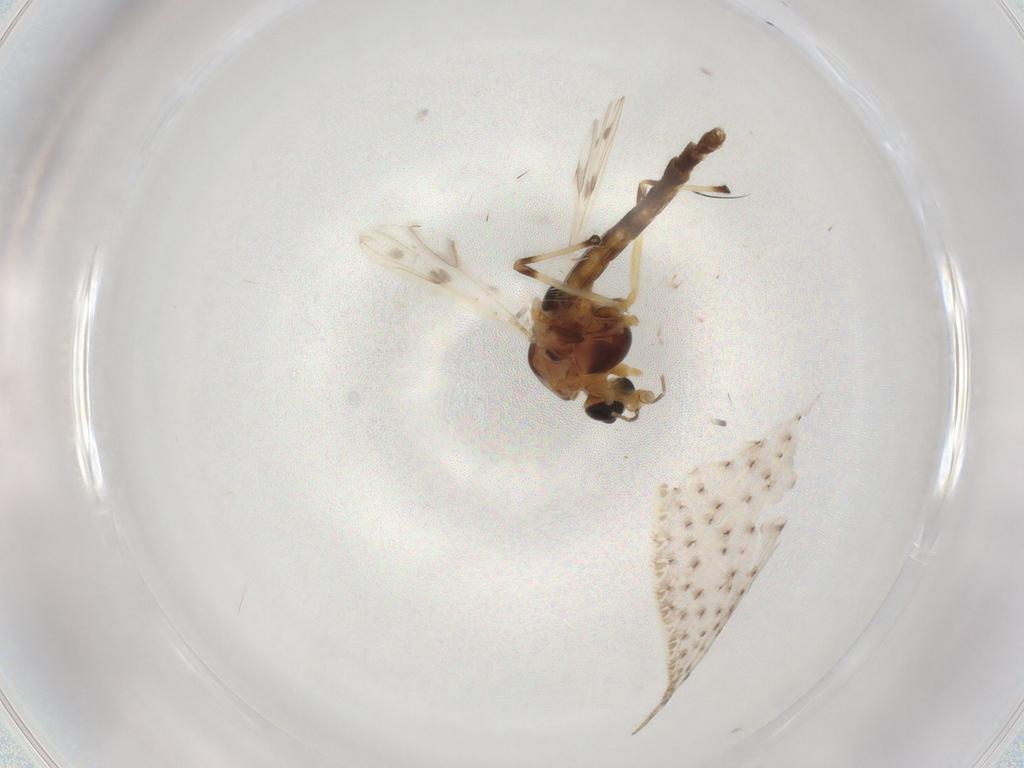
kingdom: Animalia
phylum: Arthropoda
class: Insecta
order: Diptera
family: Chironomidae
